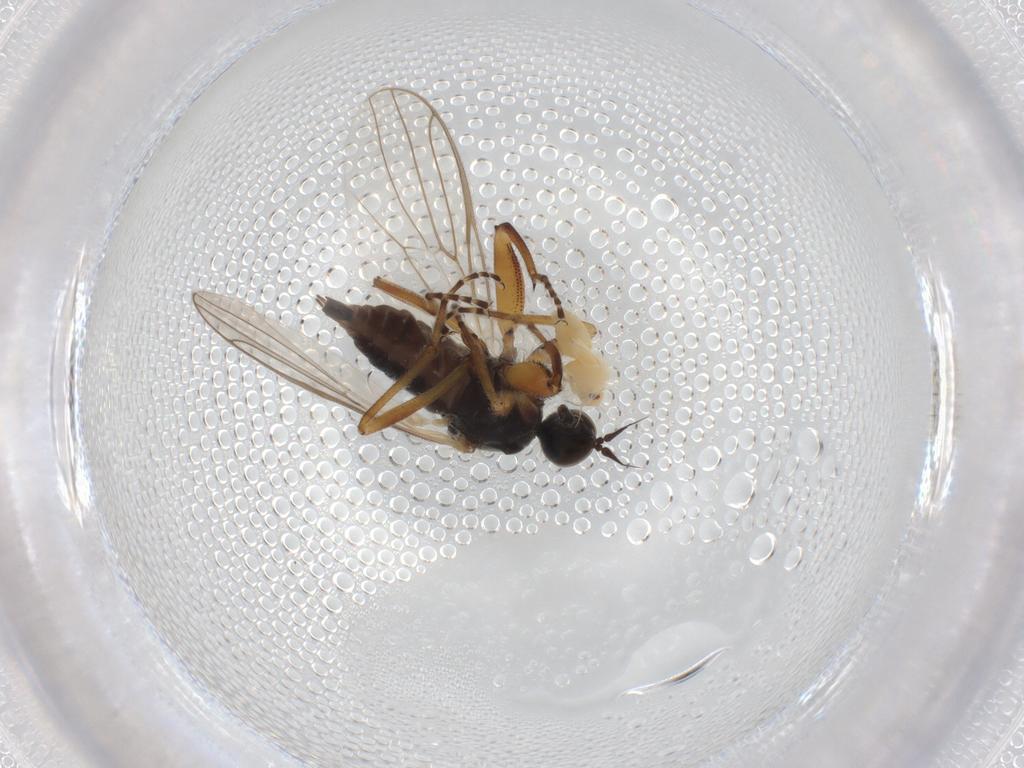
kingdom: Animalia
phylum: Arthropoda
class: Insecta
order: Diptera
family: Hybotidae
